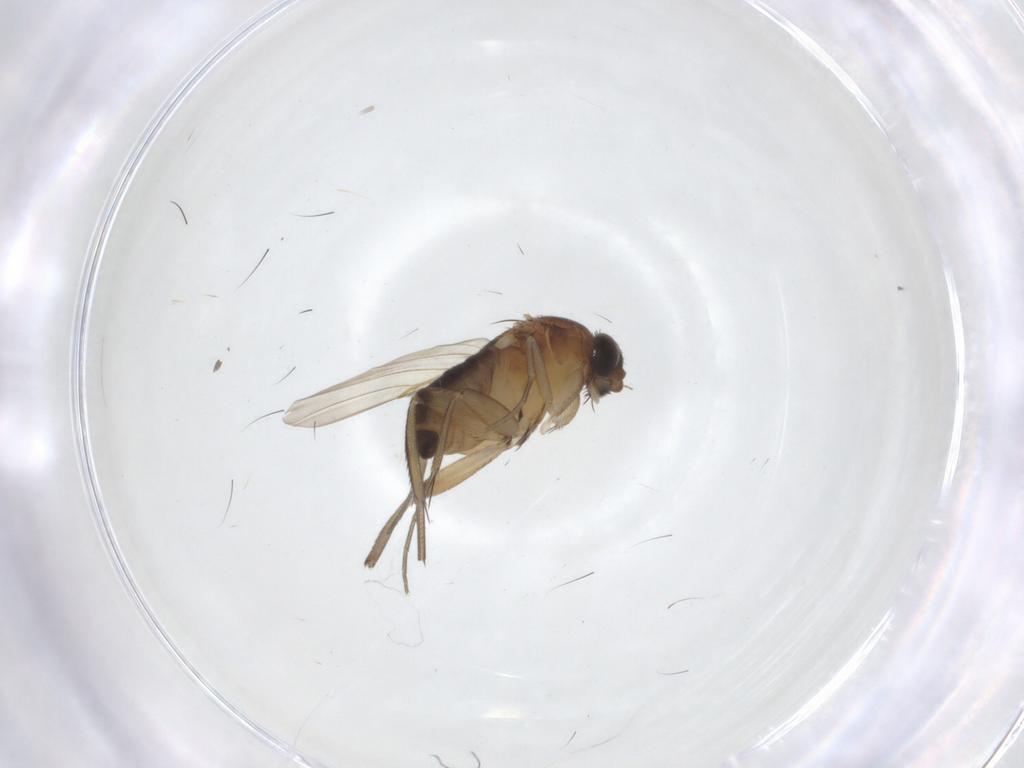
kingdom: Animalia
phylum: Arthropoda
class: Insecta
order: Diptera
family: Phoridae
